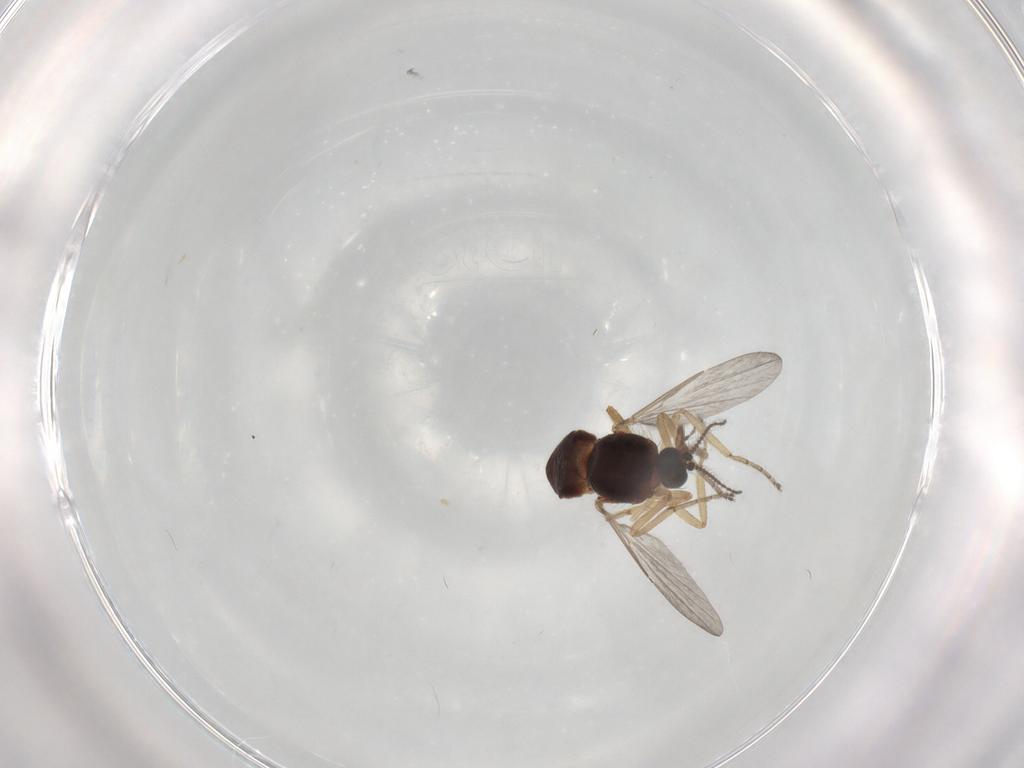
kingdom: Animalia
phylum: Arthropoda
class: Insecta
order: Diptera
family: Ceratopogonidae
